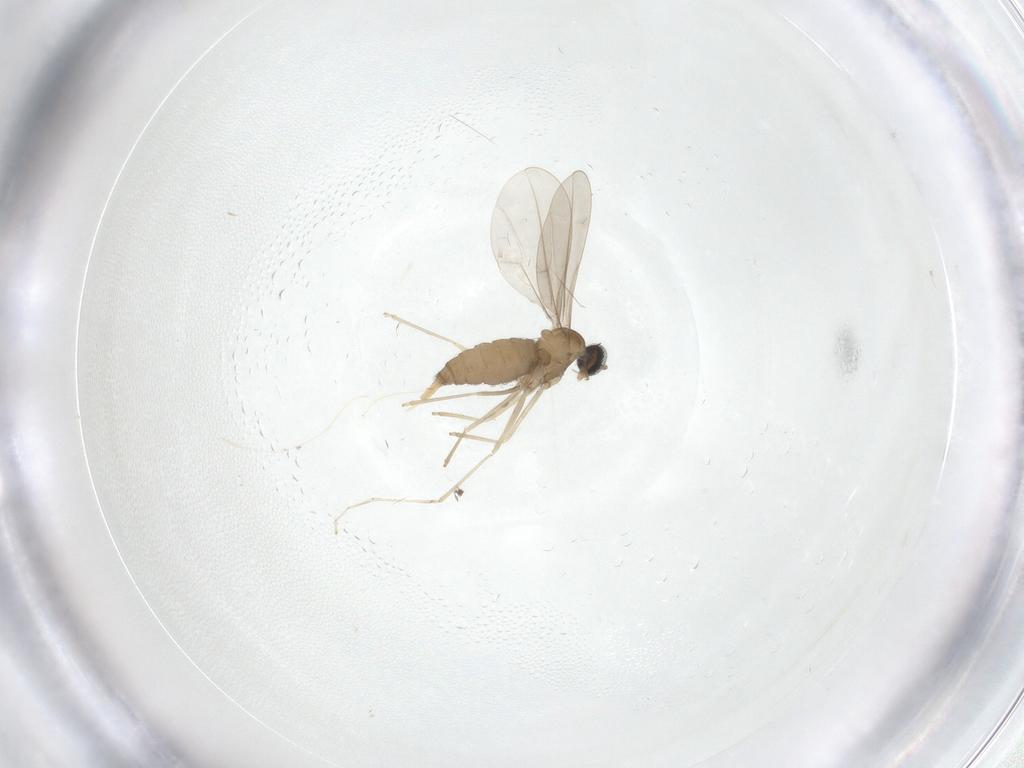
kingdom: Animalia
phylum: Arthropoda
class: Insecta
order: Diptera
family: Cecidomyiidae
